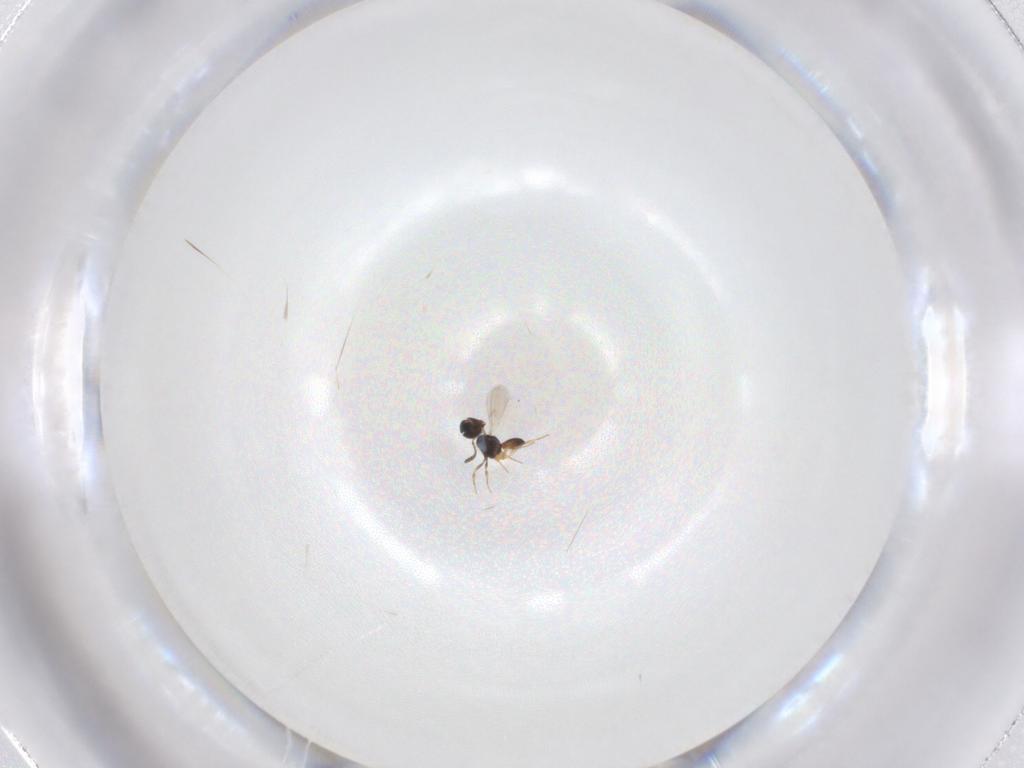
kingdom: Animalia
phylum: Arthropoda
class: Insecta
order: Hymenoptera
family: Scelionidae
